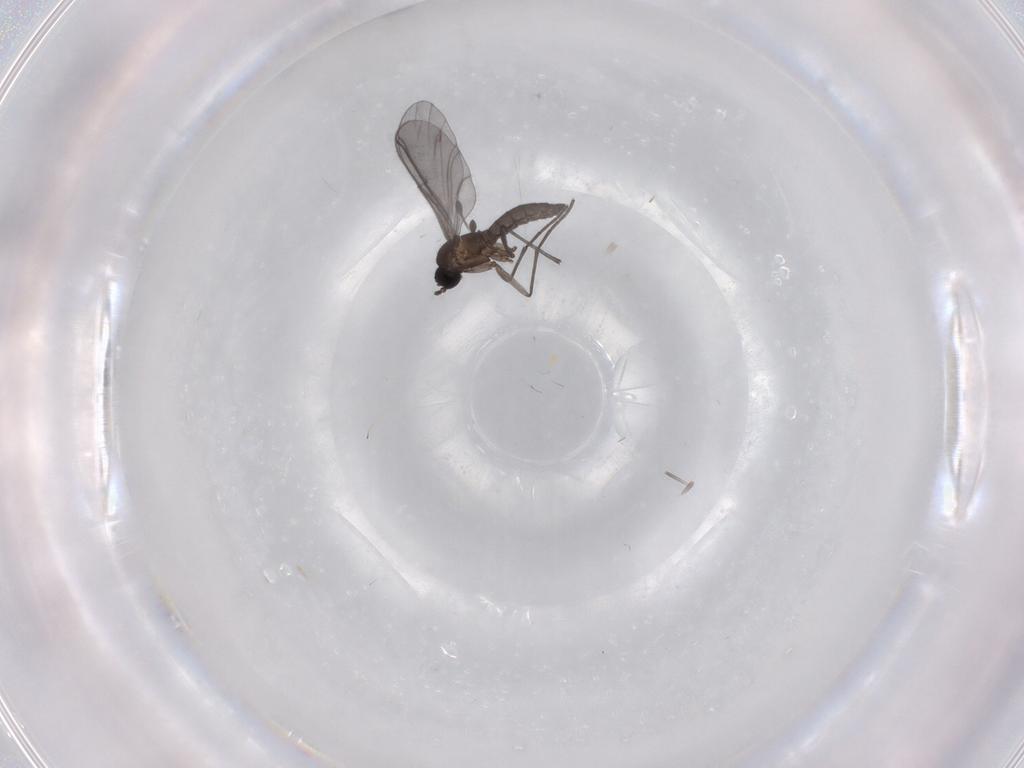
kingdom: Animalia
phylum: Arthropoda
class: Insecta
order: Diptera
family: Sciaridae
